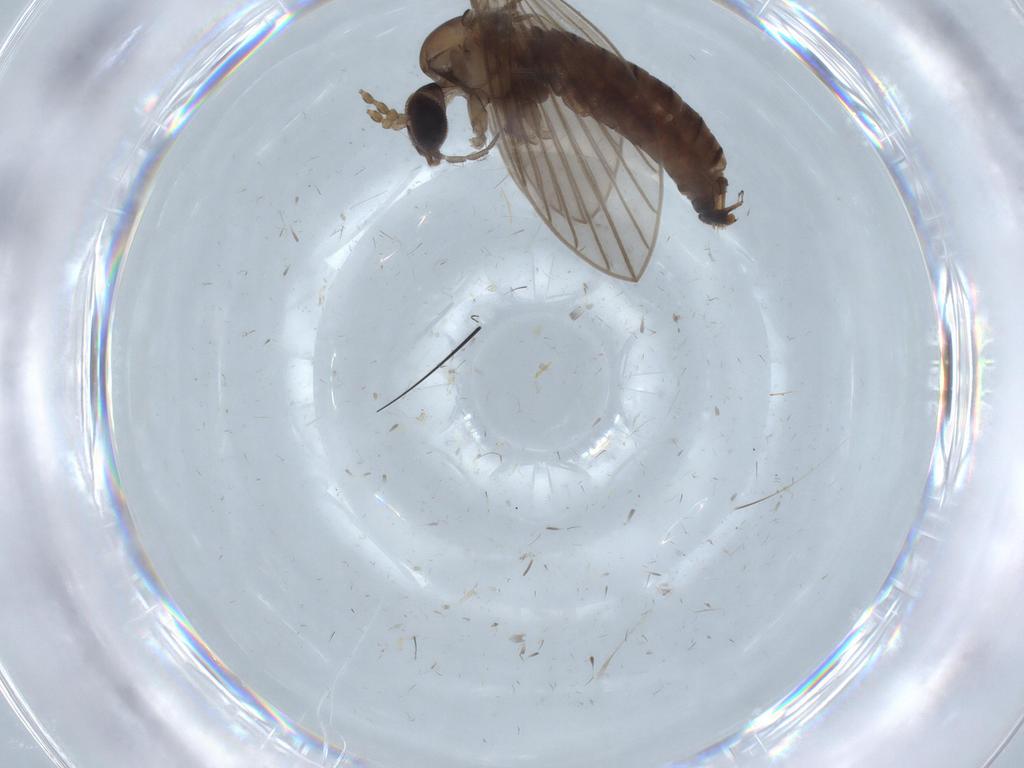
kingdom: Animalia
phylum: Arthropoda
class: Insecta
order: Diptera
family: Psychodidae
